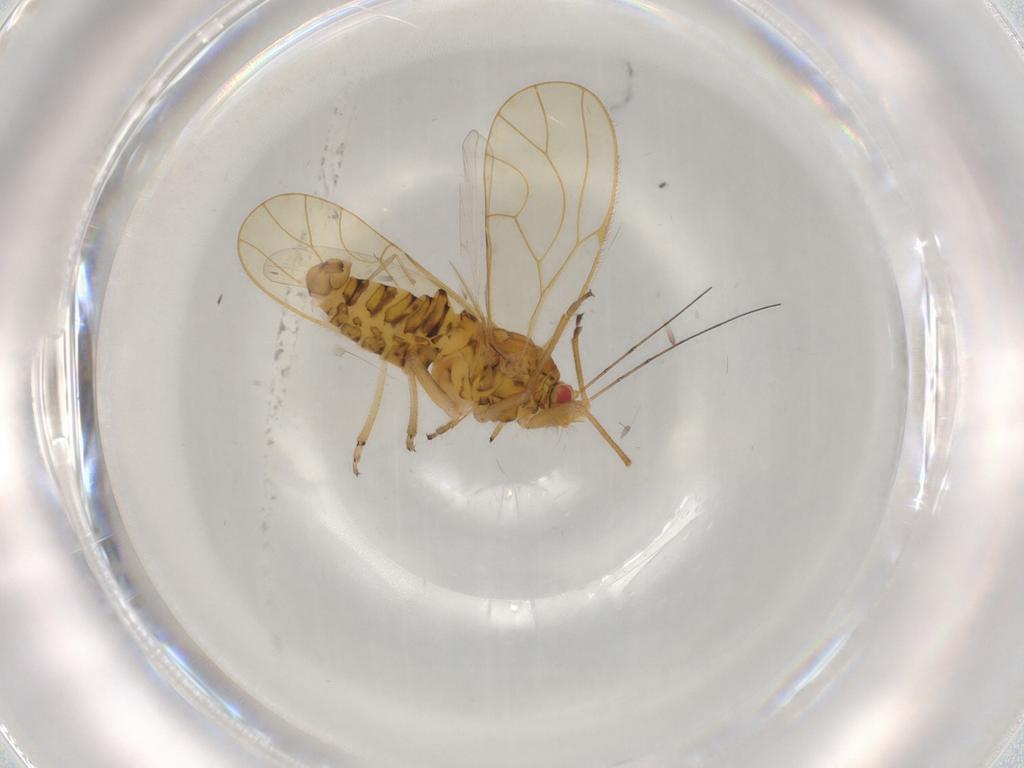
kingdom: Animalia
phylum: Arthropoda
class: Insecta
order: Hemiptera
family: Psyllidae
